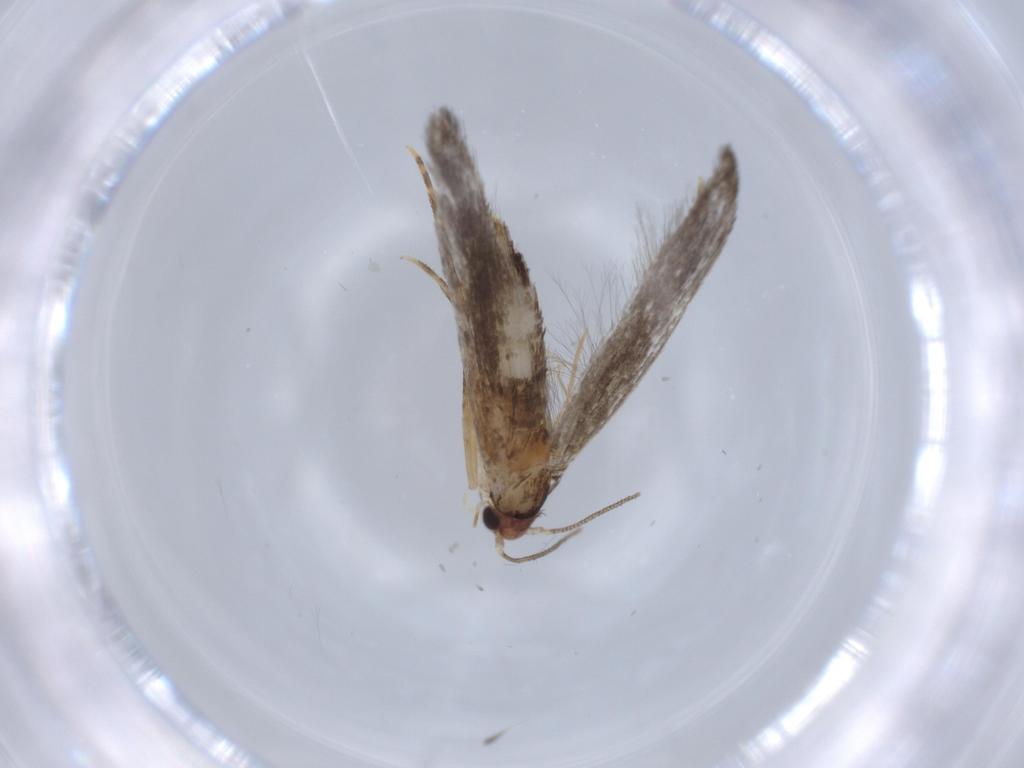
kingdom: Animalia
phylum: Arthropoda
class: Insecta
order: Lepidoptera
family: Tineidae
